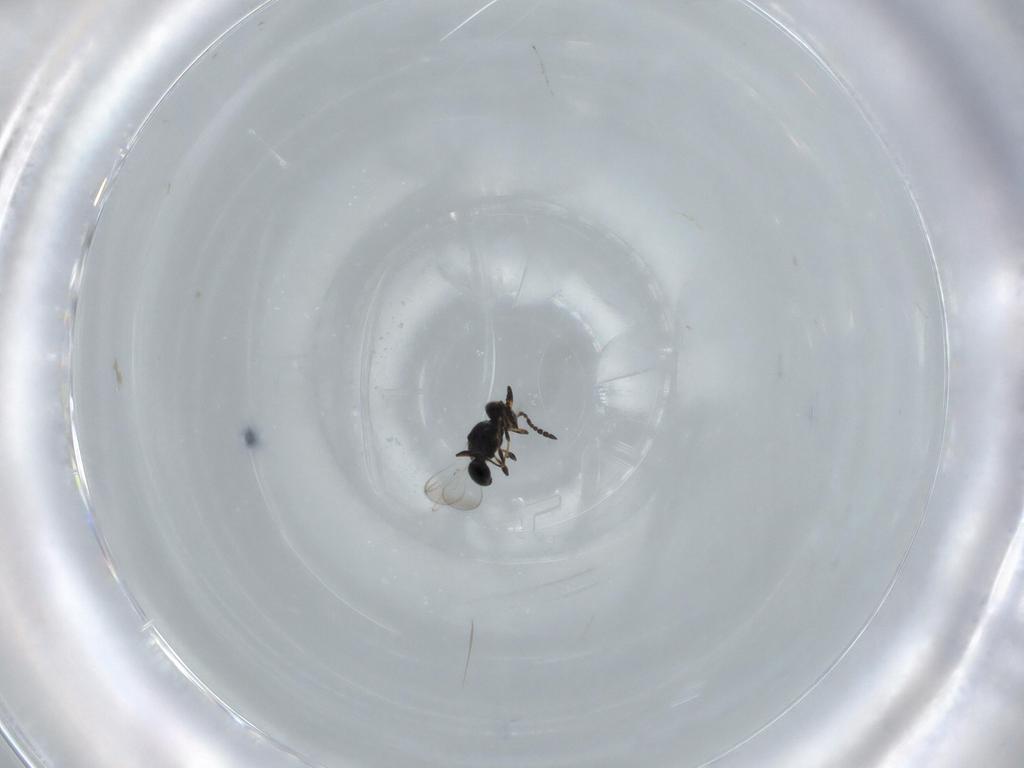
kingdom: Animalia
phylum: Arthropoda
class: Insecta
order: Hymenoptera
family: Platygastridae
